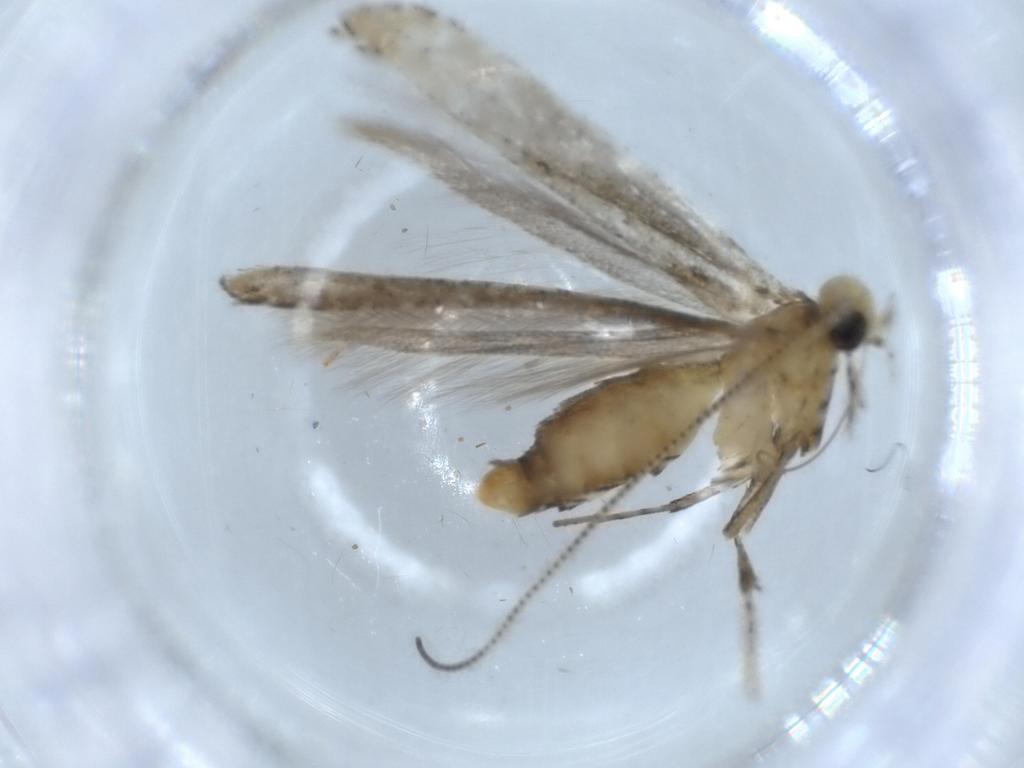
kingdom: Animalia
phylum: Arthropoda
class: Insecta
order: Lepidoptera
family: Gracillariidae
